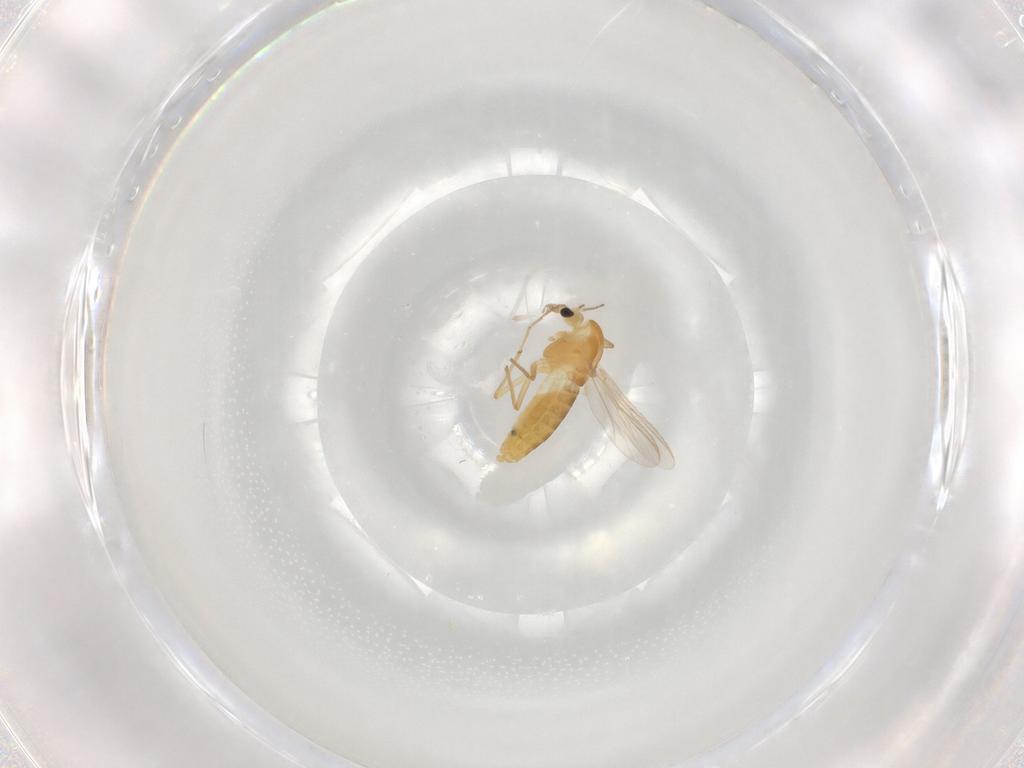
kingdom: Animalia
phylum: Arthropoda
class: Insecta
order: Diptera
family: Chironomidae
